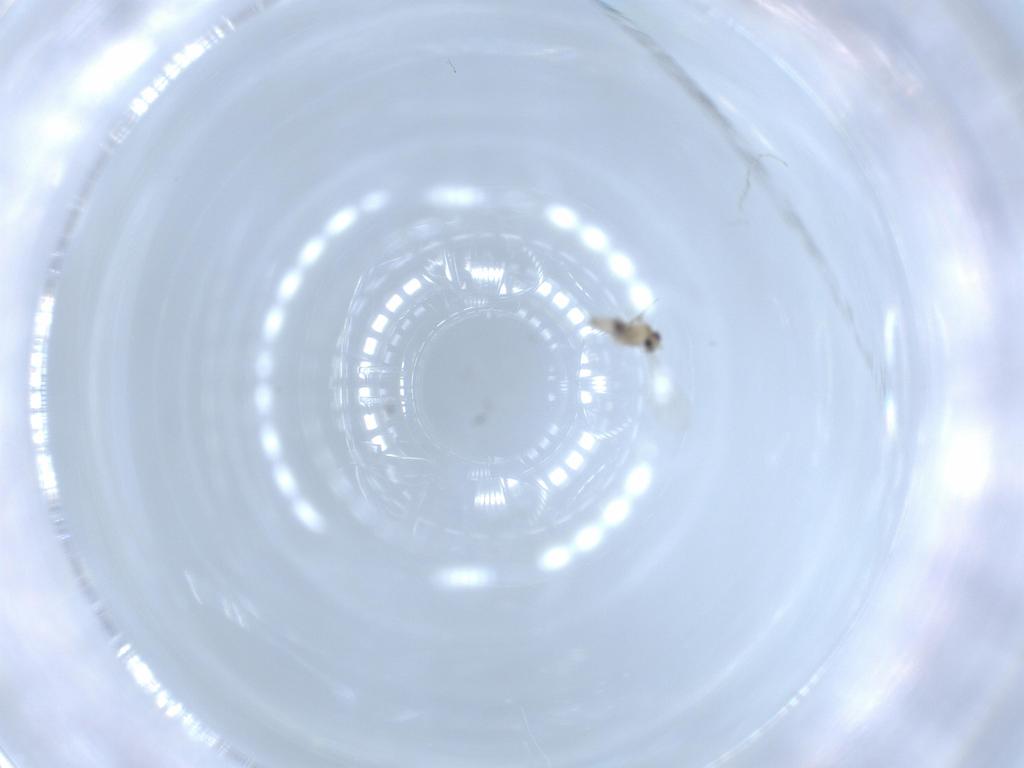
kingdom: Animalia
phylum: Arthropoda
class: Insecta
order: Diptera
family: Cecidomyiidae
